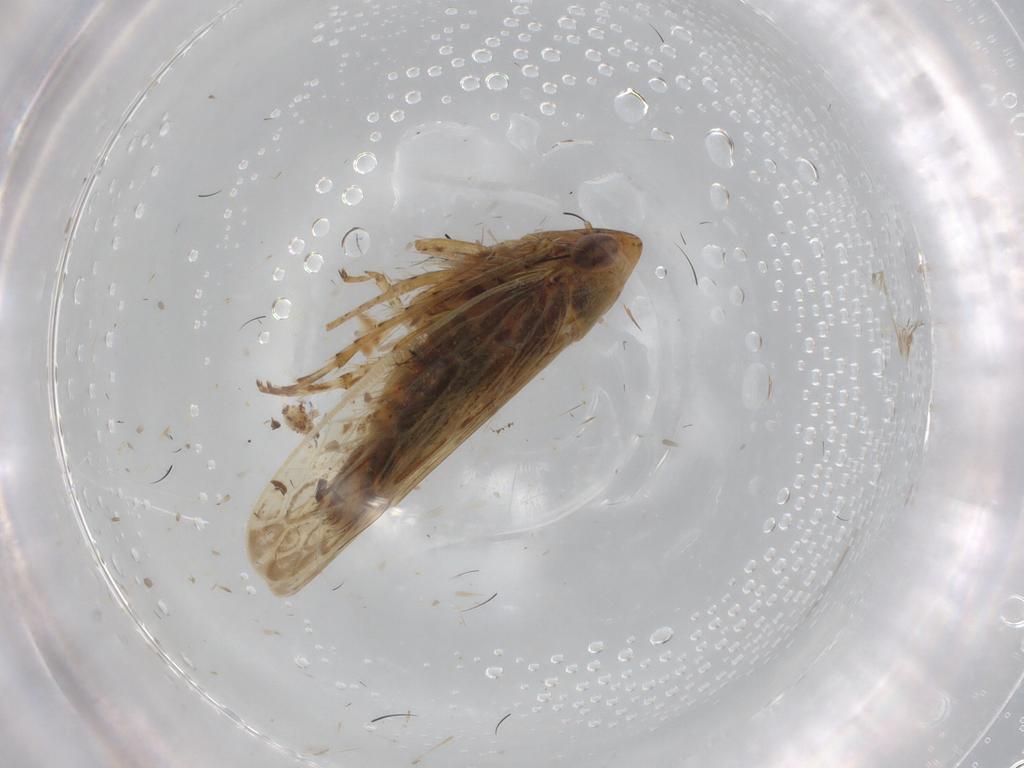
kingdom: Animalia
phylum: Arthropoda
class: Insecta
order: Hemiptera
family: Cicadellidae
